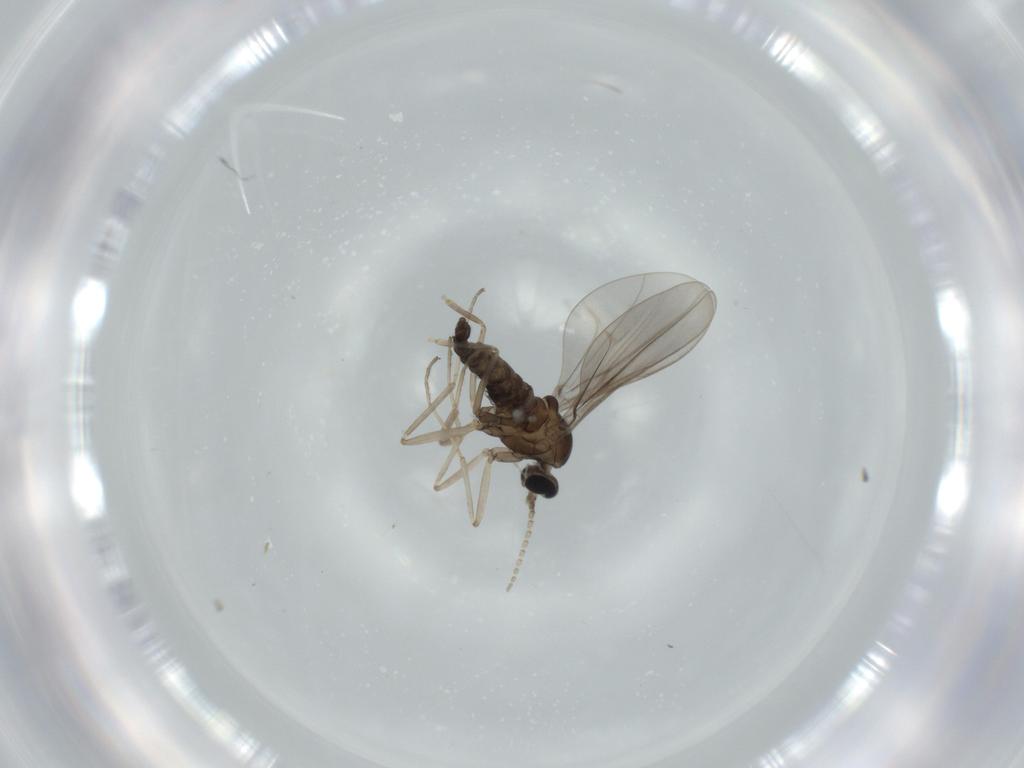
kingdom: Animalia
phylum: Arthropoda
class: Insecta
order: Diptera
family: Cecidomyiidae
